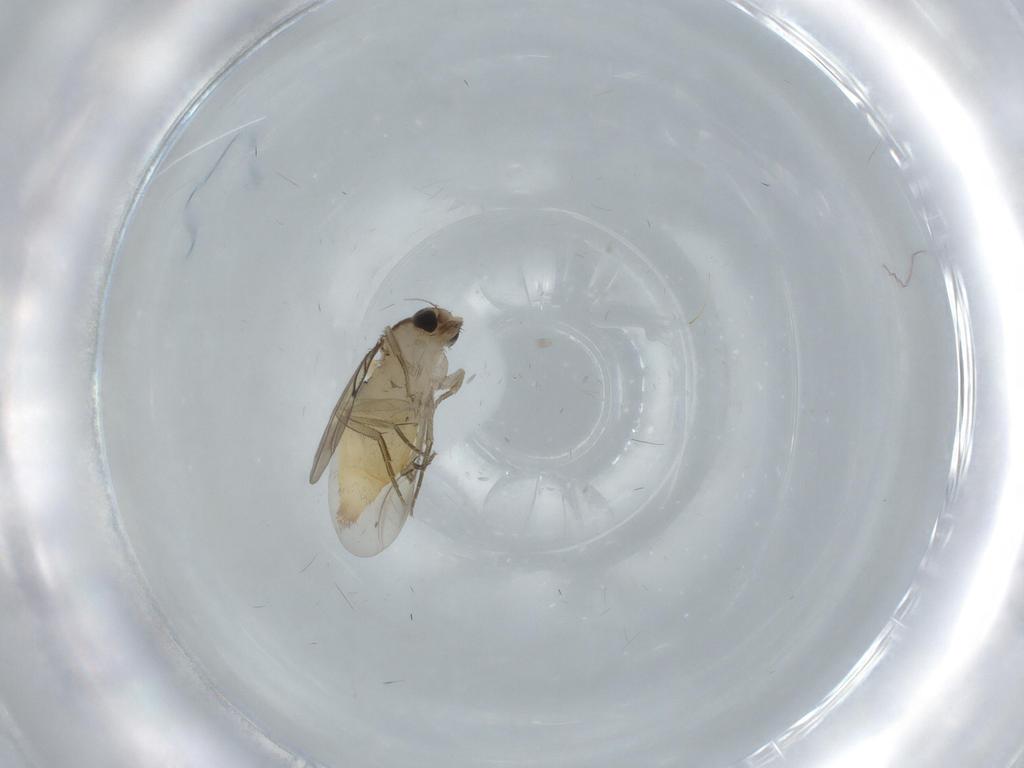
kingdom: Animalia
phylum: Arthropoda
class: Insecta
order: Diptera
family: Phoridae
